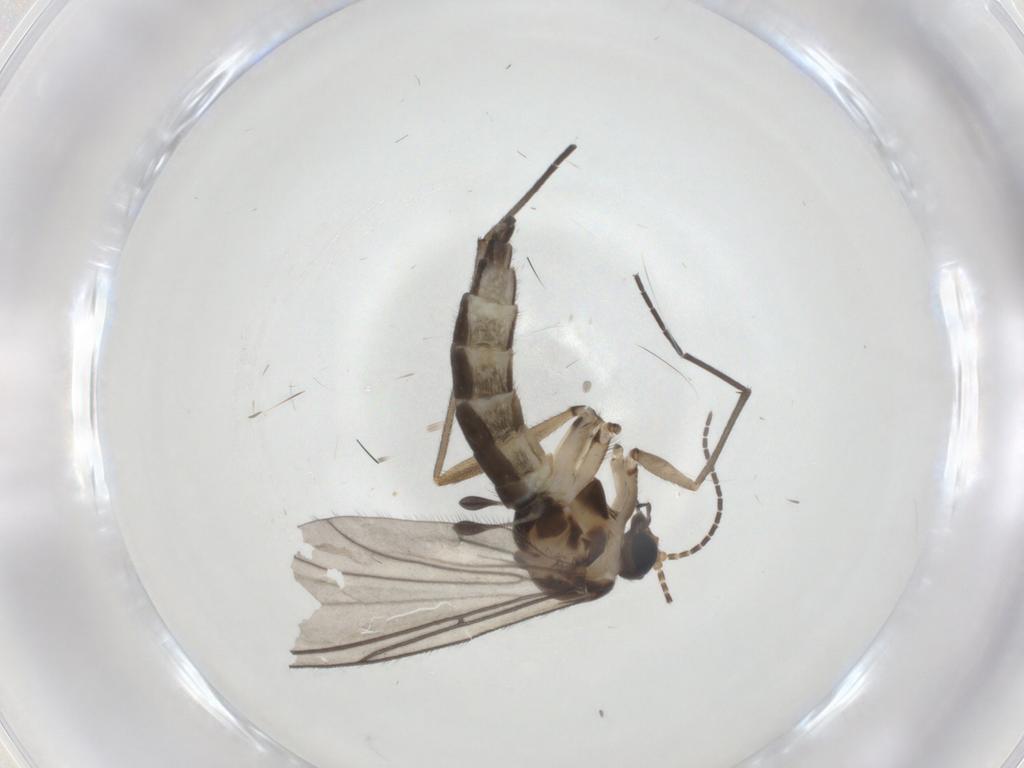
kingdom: Animalia
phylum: Arthropoda
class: Insecta
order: Diptera
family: Sciaridae
